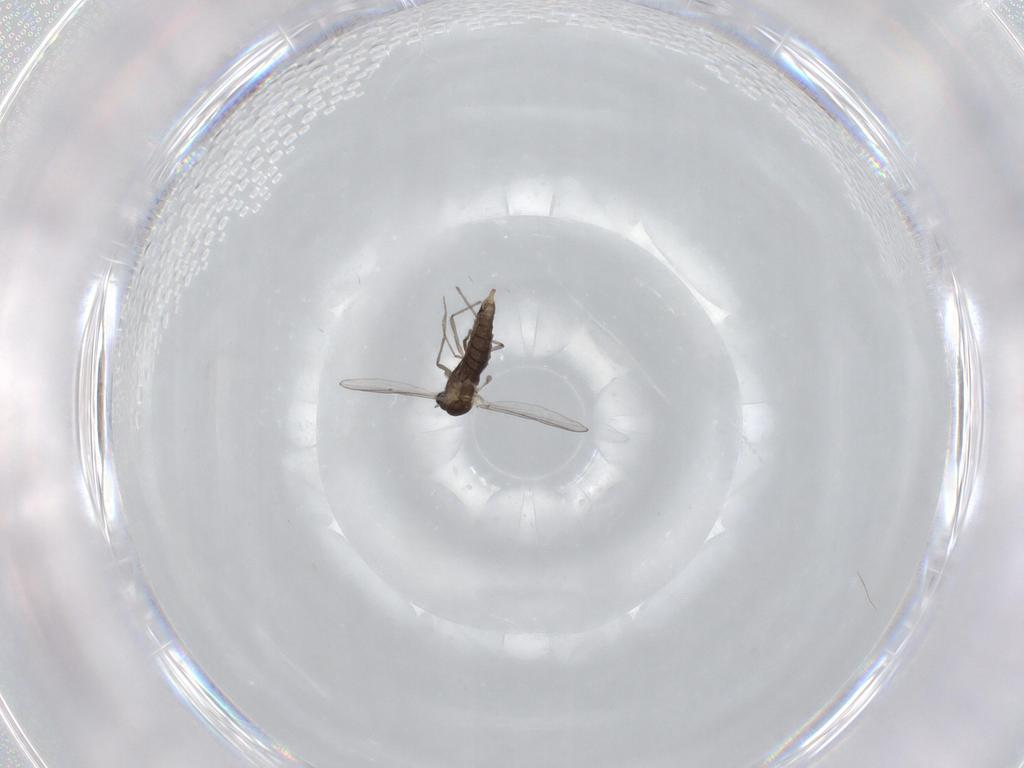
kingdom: Animalia
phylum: Arthropoda
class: Insecta
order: Diptera
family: Chironomidae
